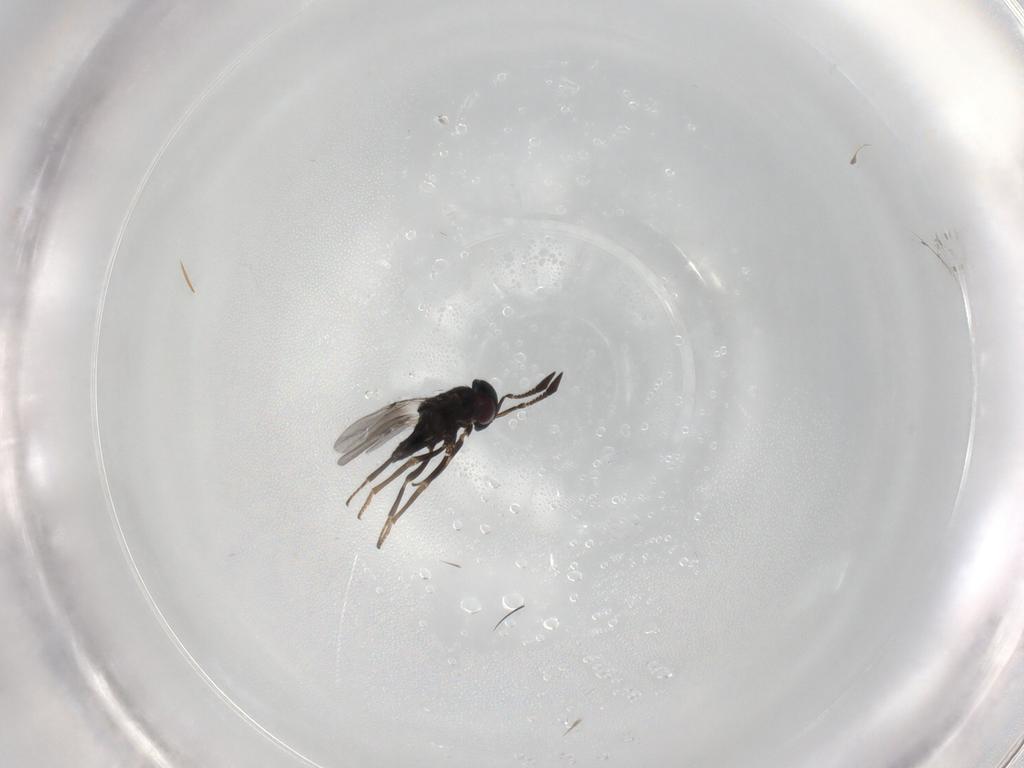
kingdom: Animalia
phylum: Arthropoda
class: Insecta
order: Hymenoptera
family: Encyrtidae
